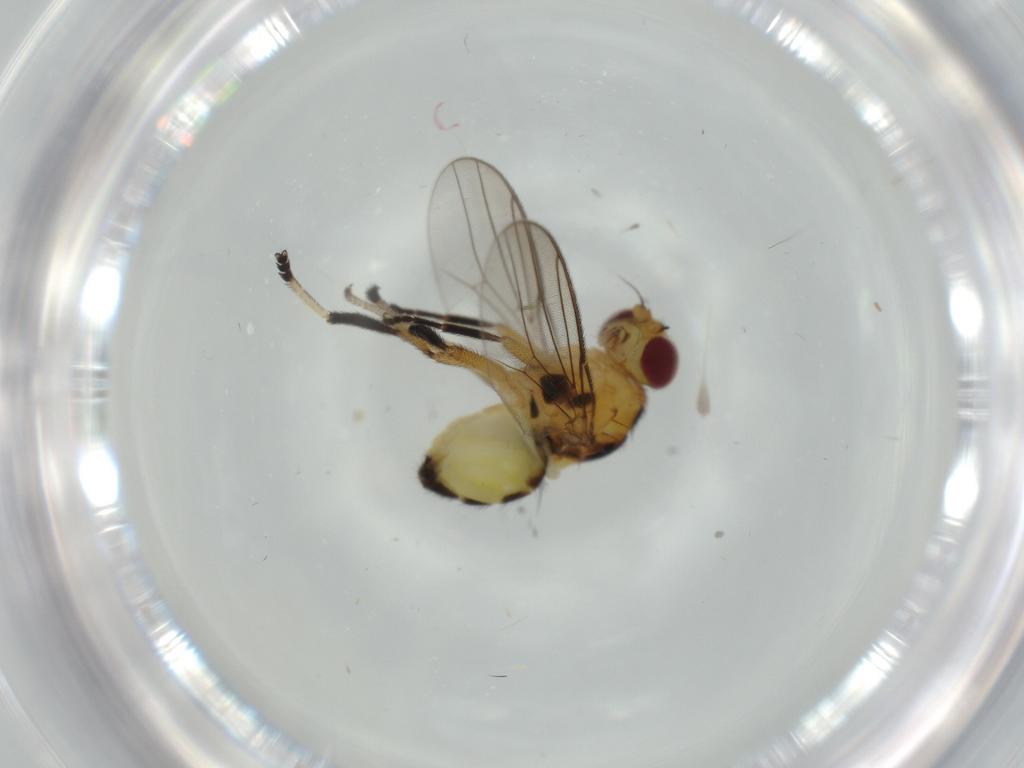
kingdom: Animalia
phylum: Arthropoda
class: Insecta
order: Diptera
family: Chloropidae
